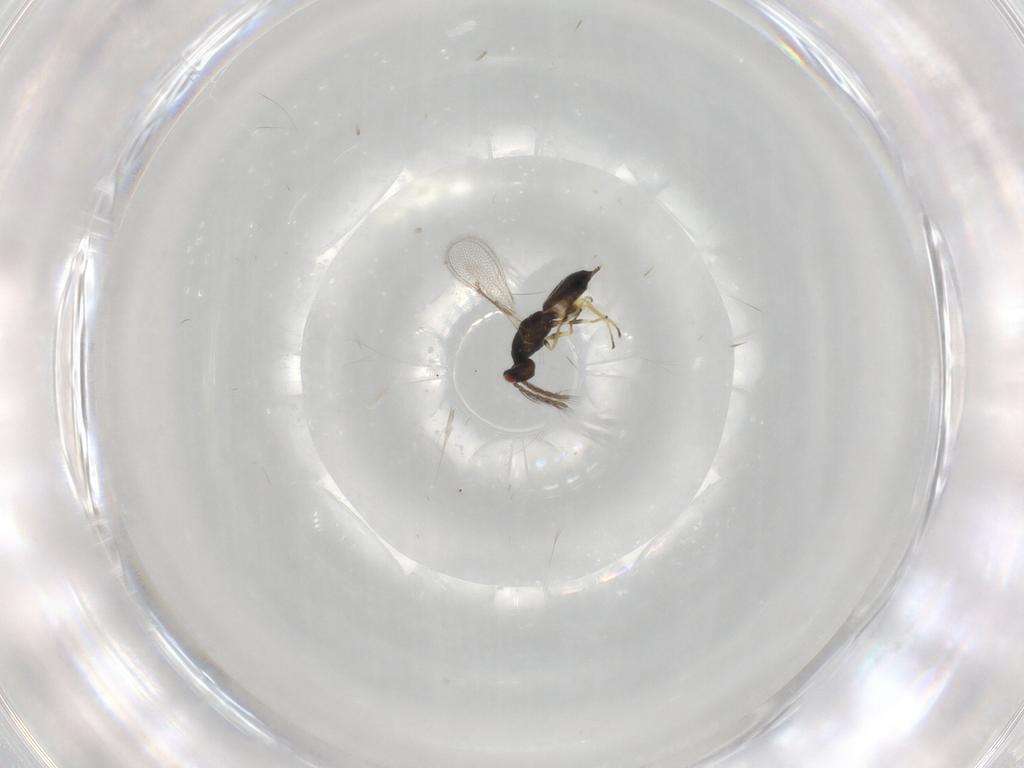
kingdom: Animalia
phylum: Arthropoda
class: Insecta
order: Hymenoptera
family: Eulophidae
